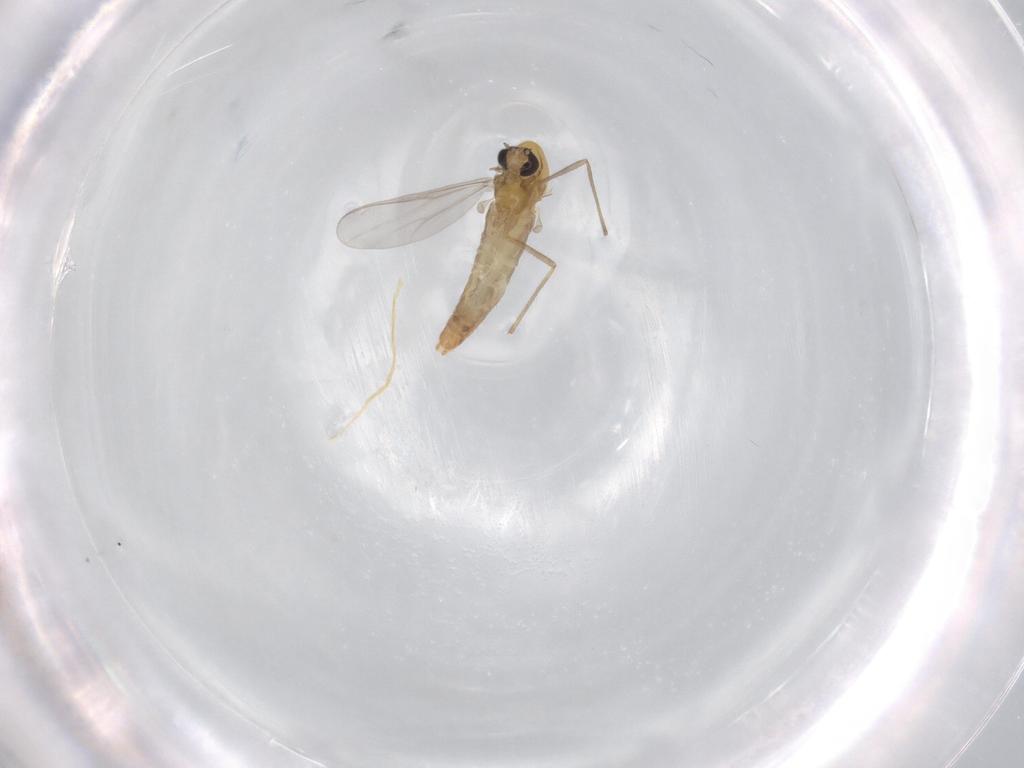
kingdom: Animalia
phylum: Arthropoda
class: Insecta
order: Diptera
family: Chironomidae
